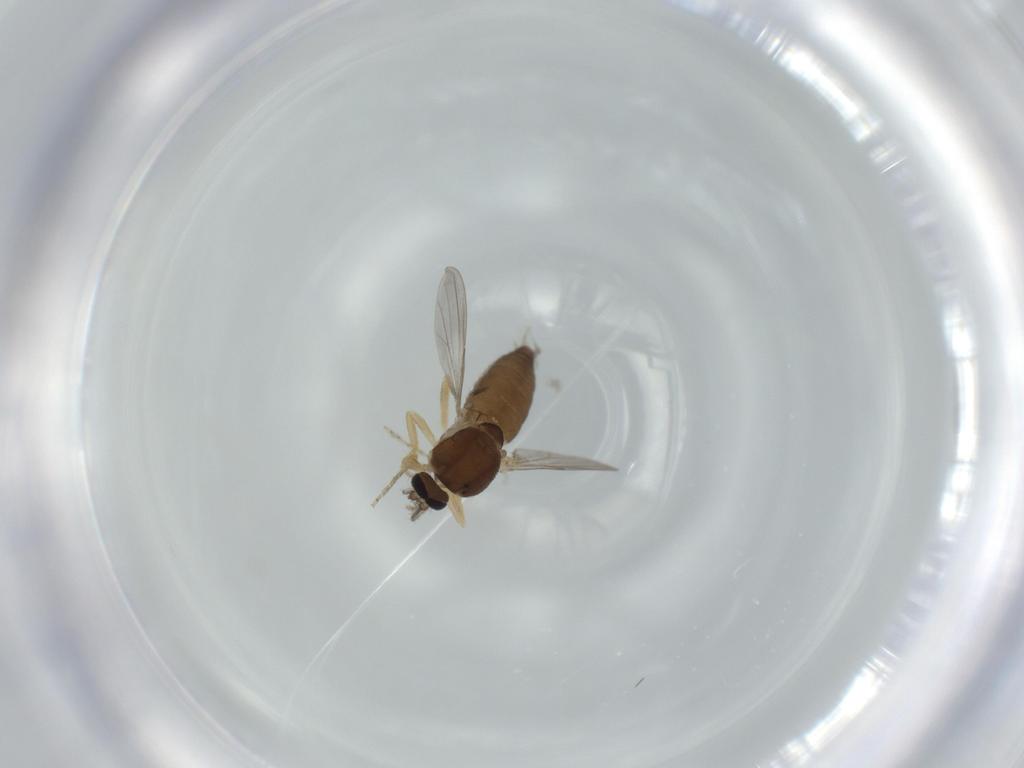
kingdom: Animalia
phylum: Arthropoda
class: Insecta
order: Diptera
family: Ceratopogonidae
